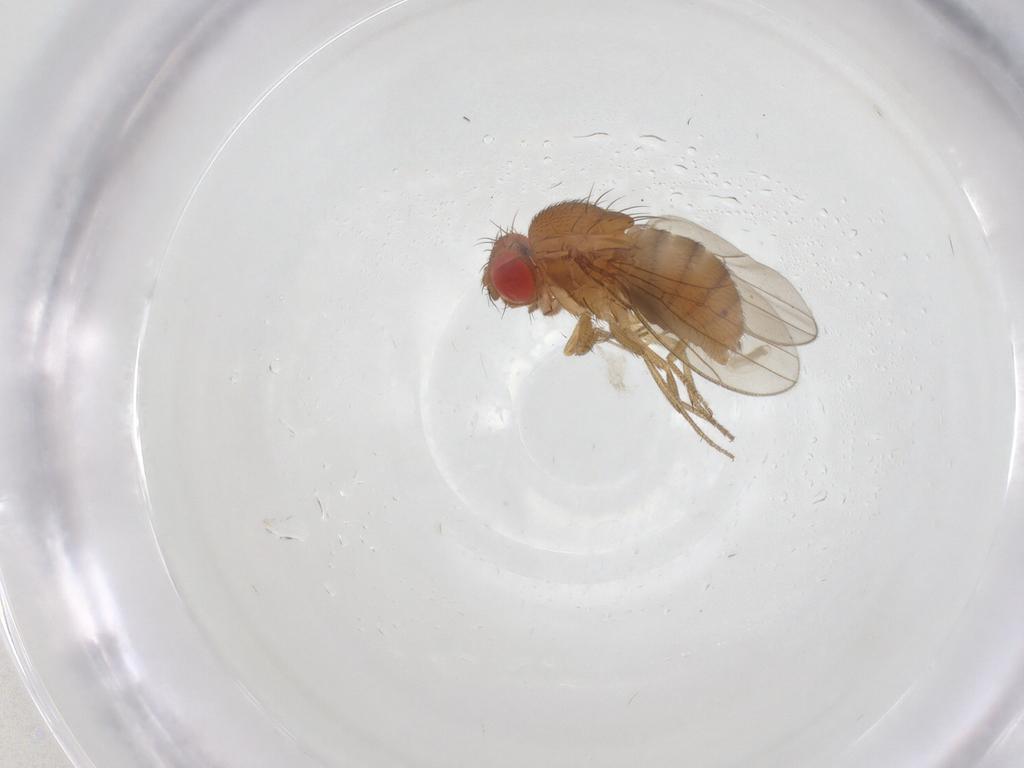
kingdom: Animalia
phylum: Arthropoda
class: Insecta
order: Diptera
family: Drosophilidae
